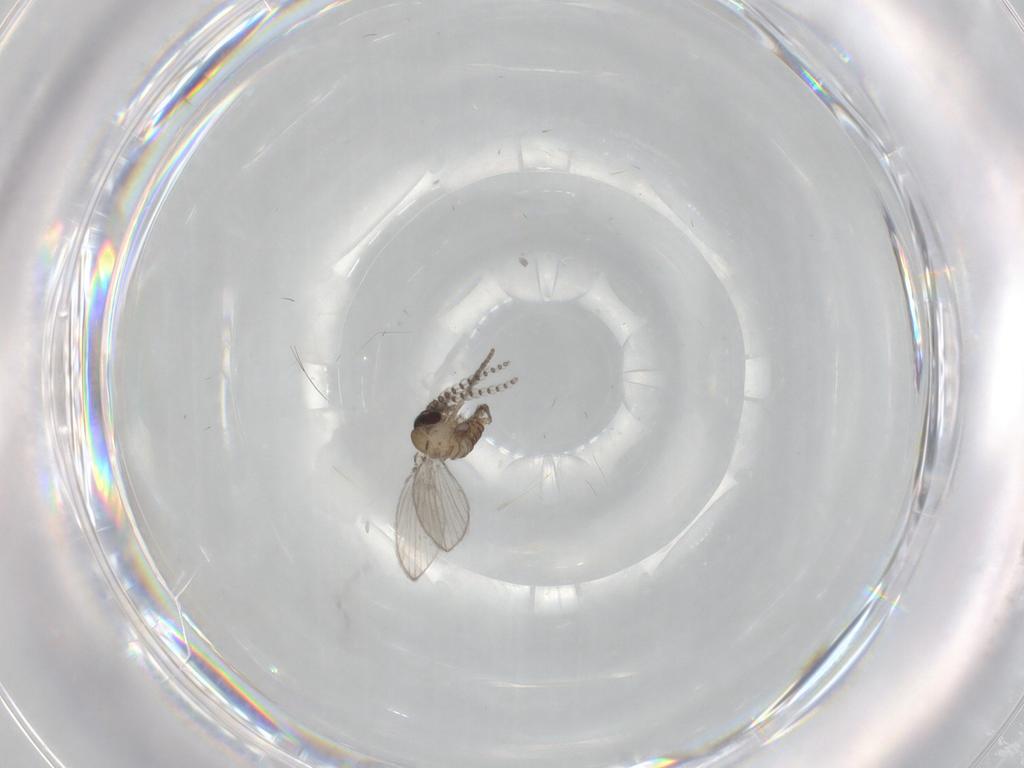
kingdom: Animalia
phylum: Arthropoda
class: Insecta
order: Diptera
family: Psychodidae
